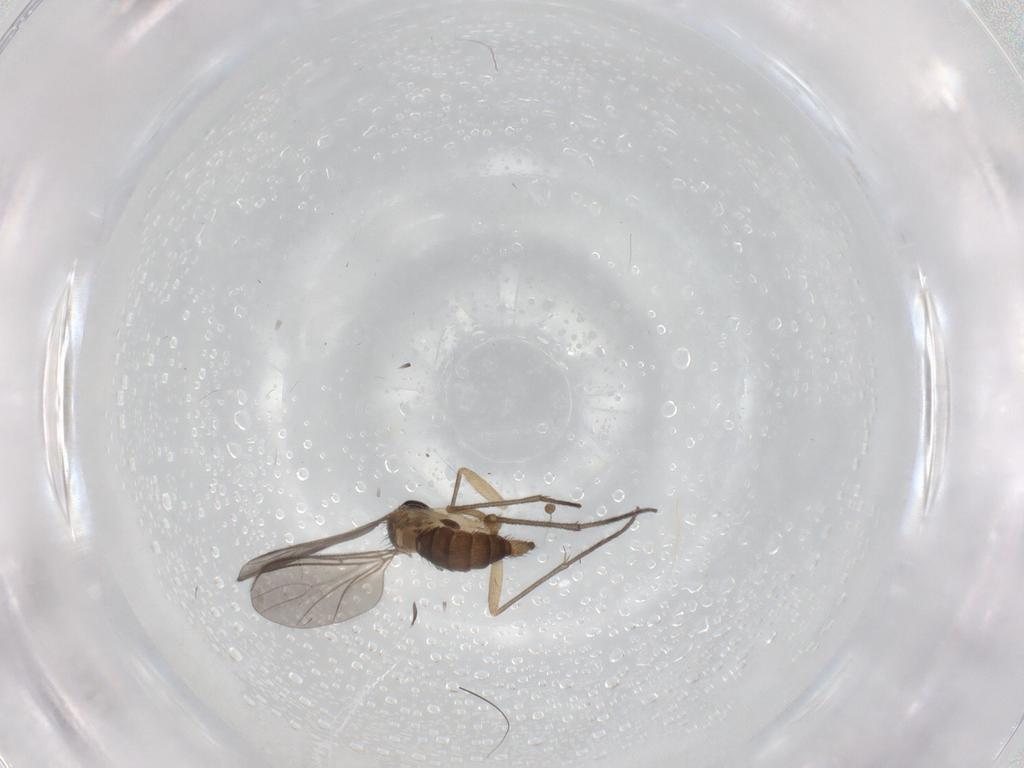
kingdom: Animalia
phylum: Arthropoda
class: Insecta
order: Diptera
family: Sciaridae
